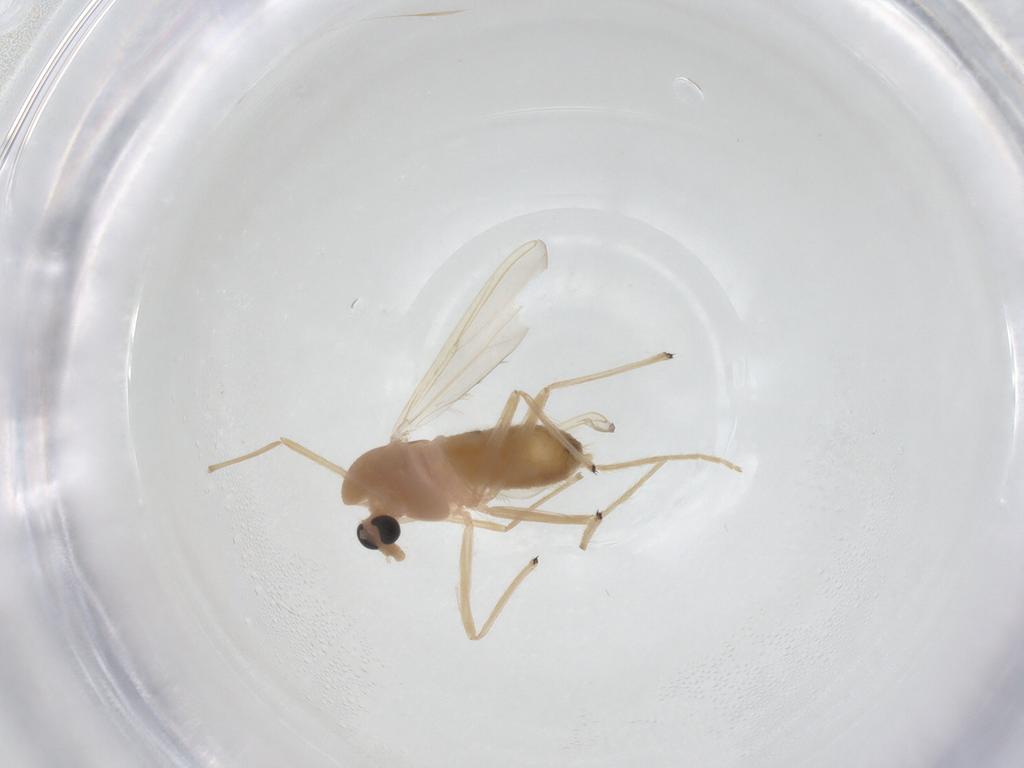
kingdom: Animalia
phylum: Arthropoda
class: Insecta
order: Diptera
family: Chironomidae
